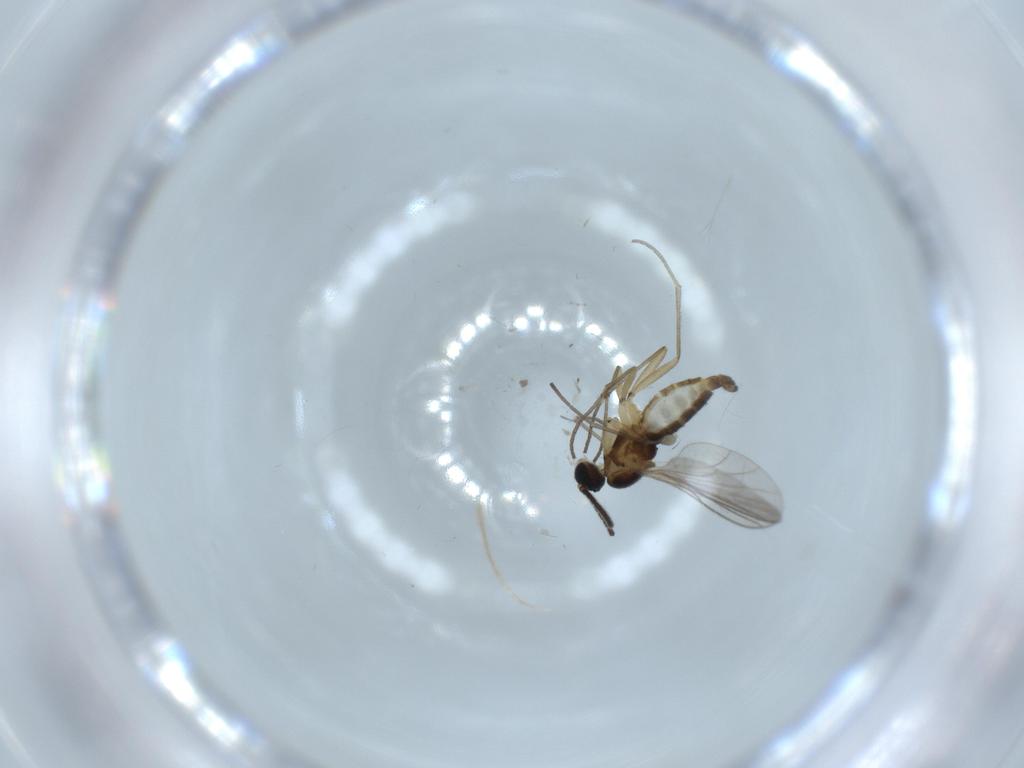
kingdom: Animalia
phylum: Arthropoda
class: Insecta
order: Diptera
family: Cecidomyiidae
